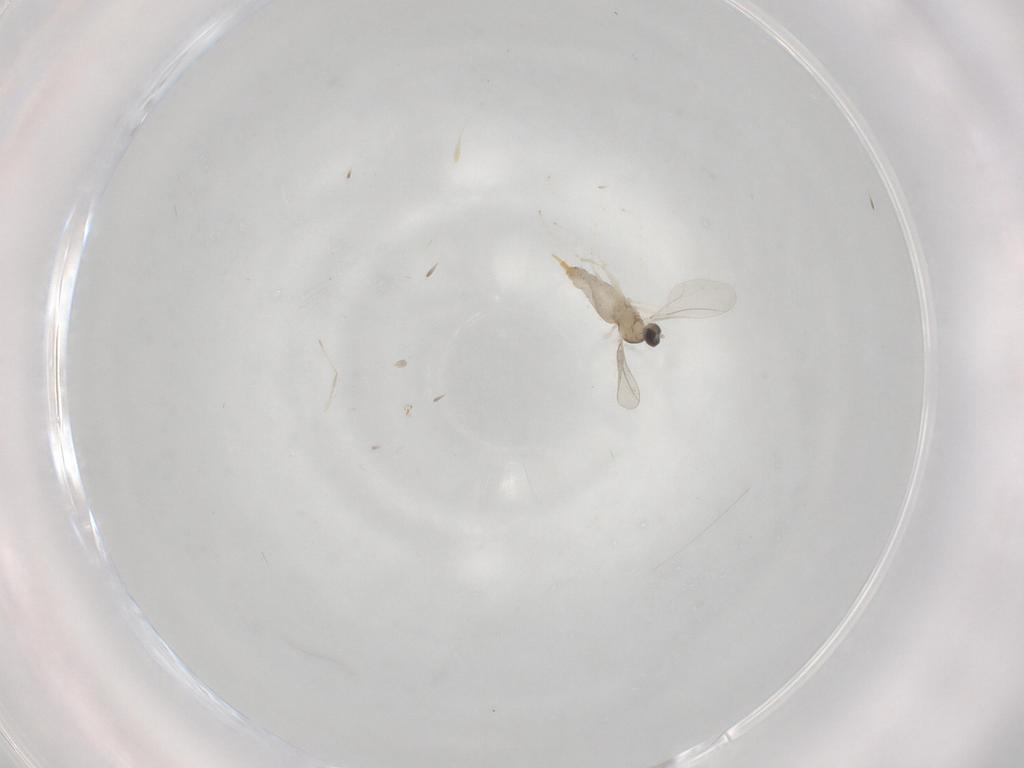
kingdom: Animalia
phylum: Arthropoda
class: Insecta
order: Diptera
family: Cecidomyiidae
